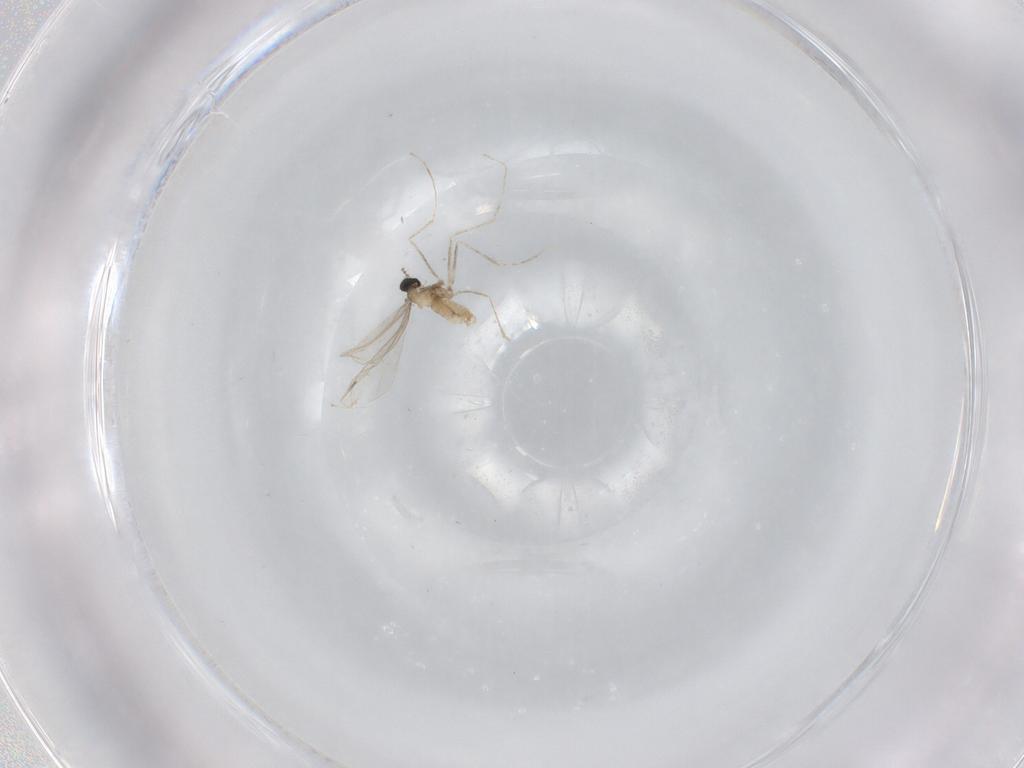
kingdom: Animalia
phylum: Arthropoda
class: Insecta
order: Diptera
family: Cecidomyiidae
